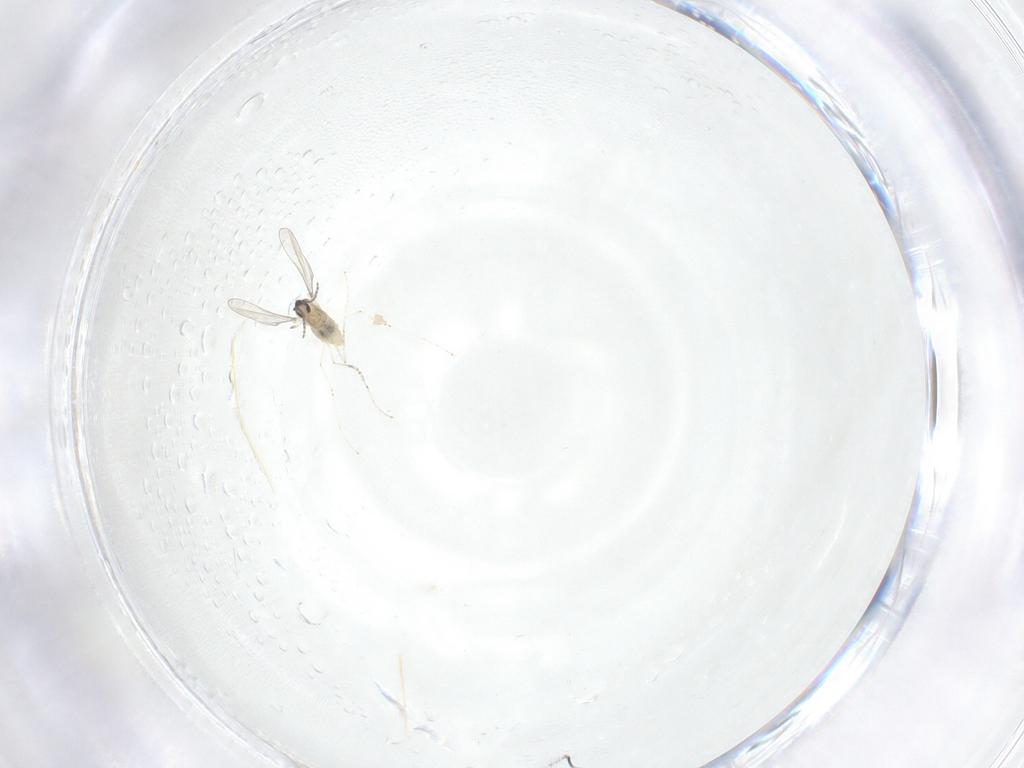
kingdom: Animalia
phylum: Arthropoda
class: Insecta
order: Diptera
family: Cecidomyiidae
